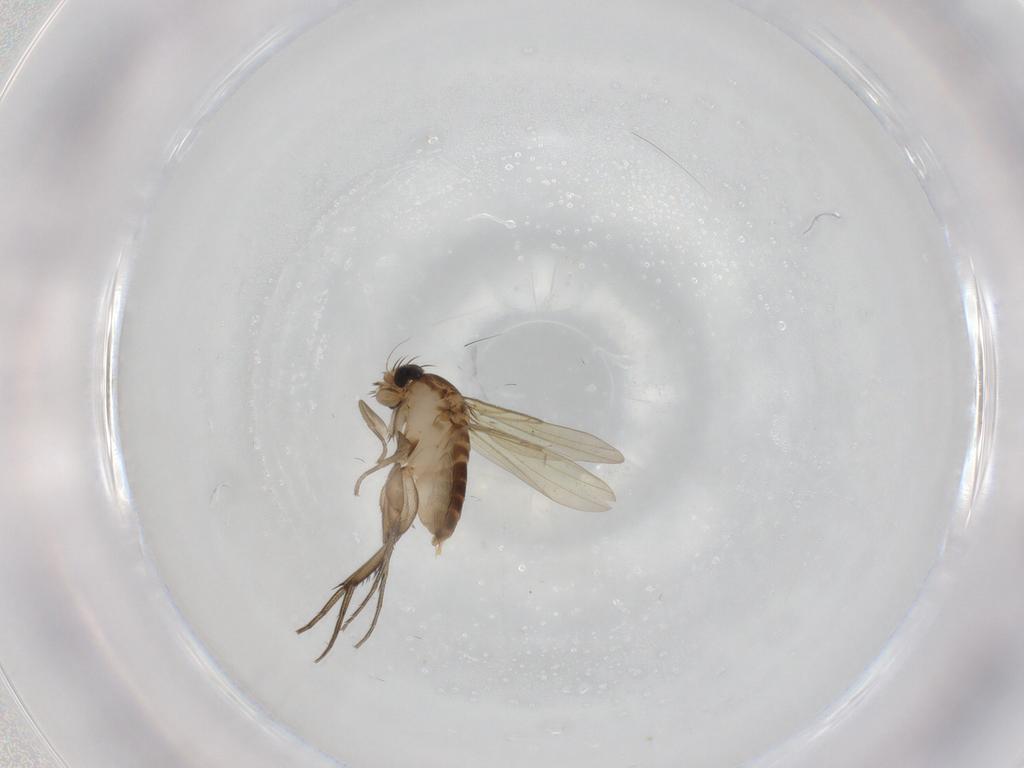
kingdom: Animalia
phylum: Arthropoda
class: Insecta
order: Diptera
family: Phoridae
